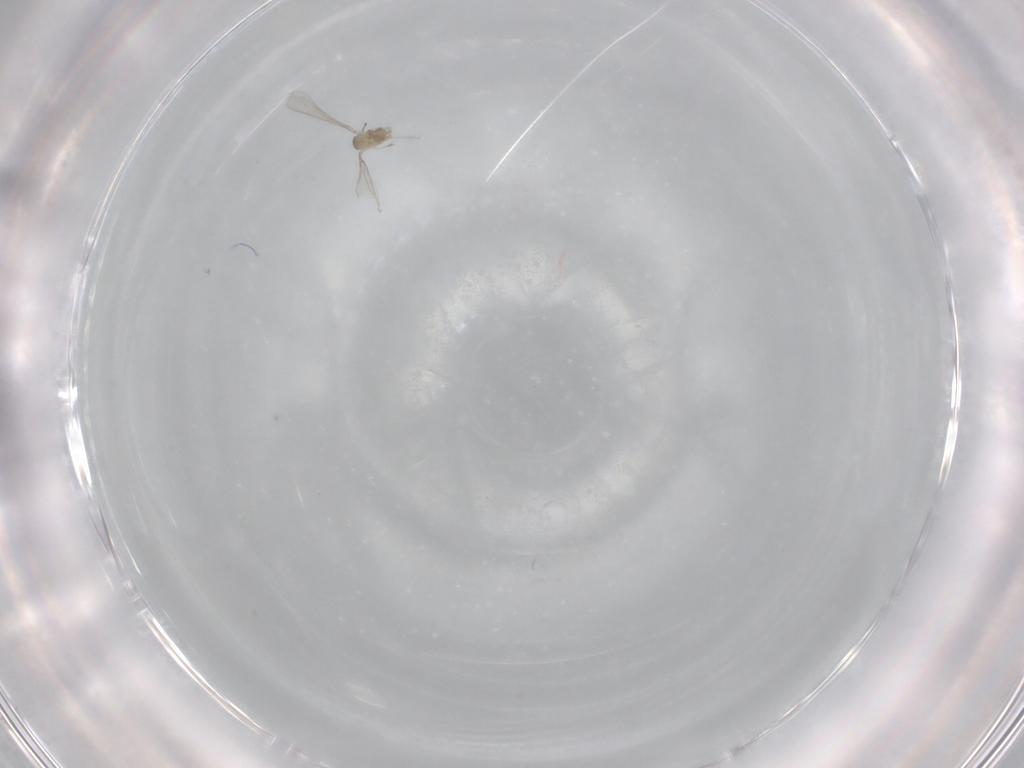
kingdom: Animalia
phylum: Arthropoda
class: Insecta
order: Diptera
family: Cecidomyiidae
